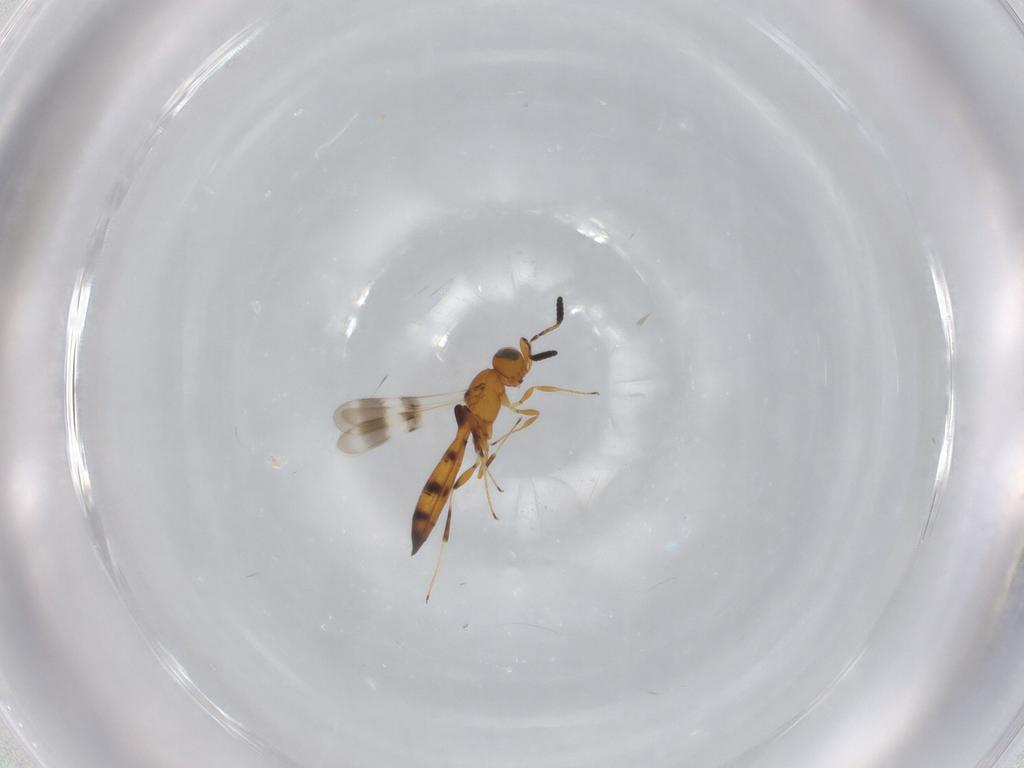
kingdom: Animalia
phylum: Arthropoda
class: Insecta
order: Hymenoptera
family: Scelionidae
